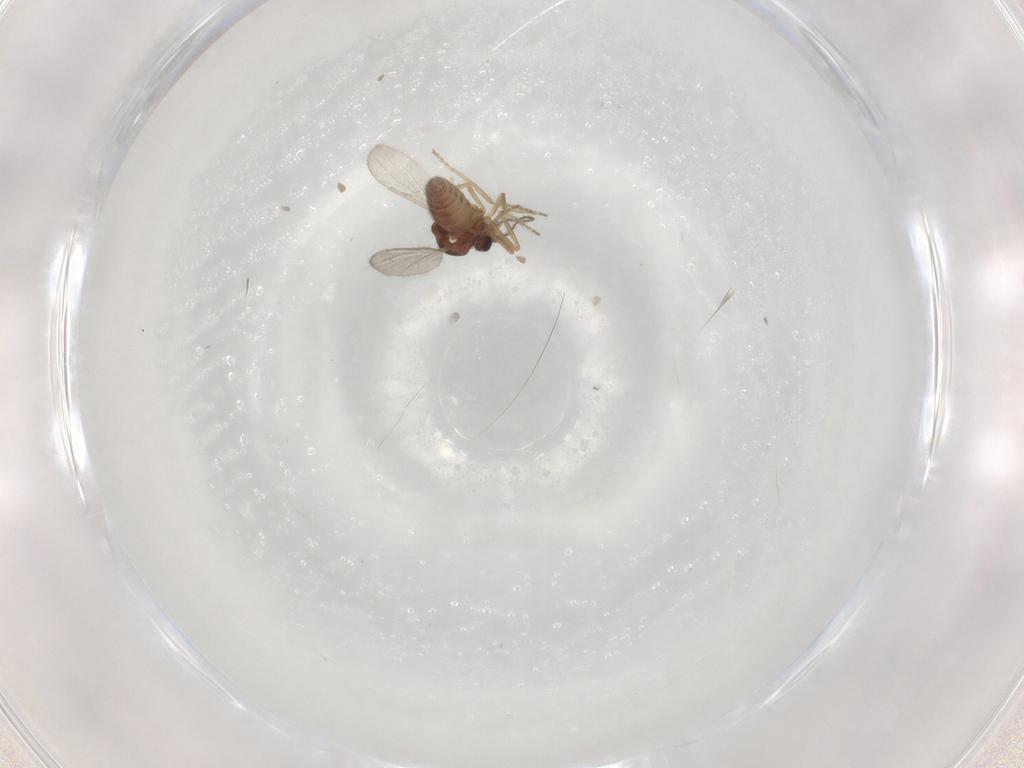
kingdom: Animalia
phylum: Arthropoda
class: Insecta
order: Diptera
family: Ceratopogonidae
